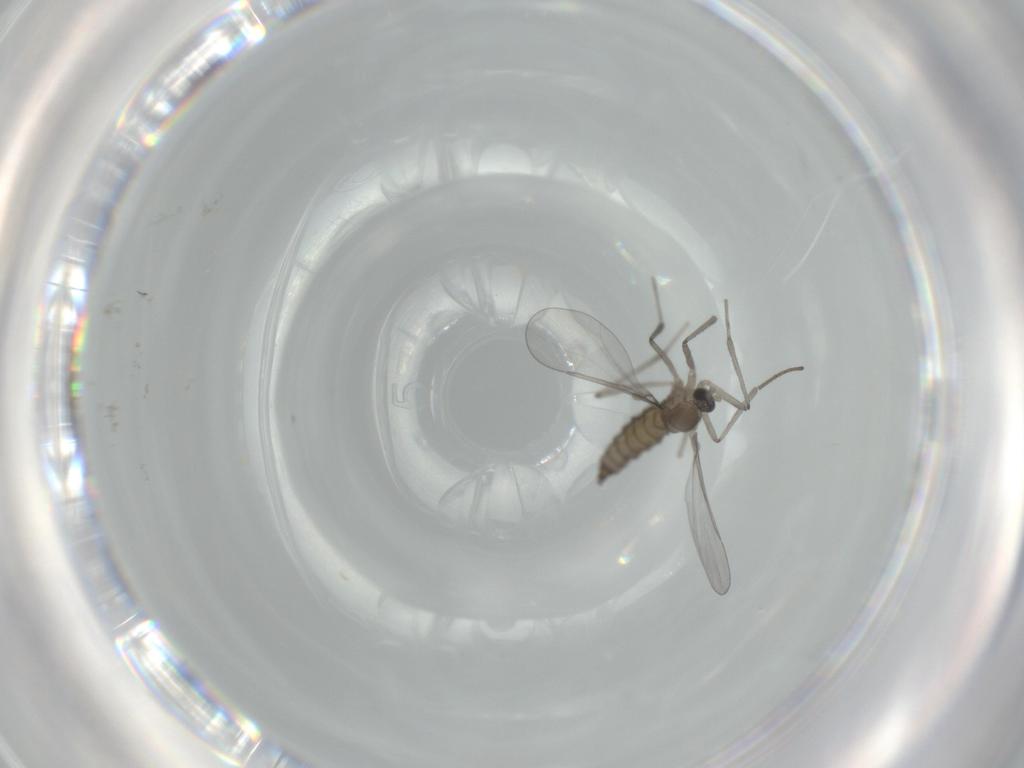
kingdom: Animalia
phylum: Arthropoda
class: Insecta
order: Diptera
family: Cecidomyiidae
